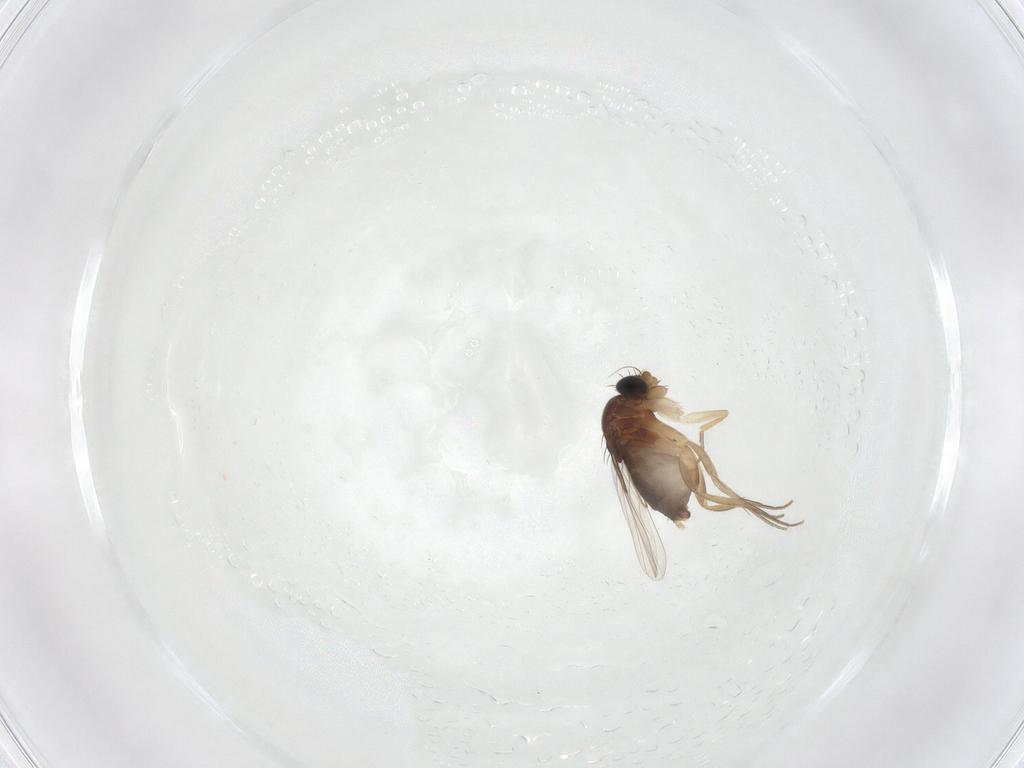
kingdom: Animalia
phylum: Arthropoda
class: Insecta
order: Diptera
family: Phoridae
